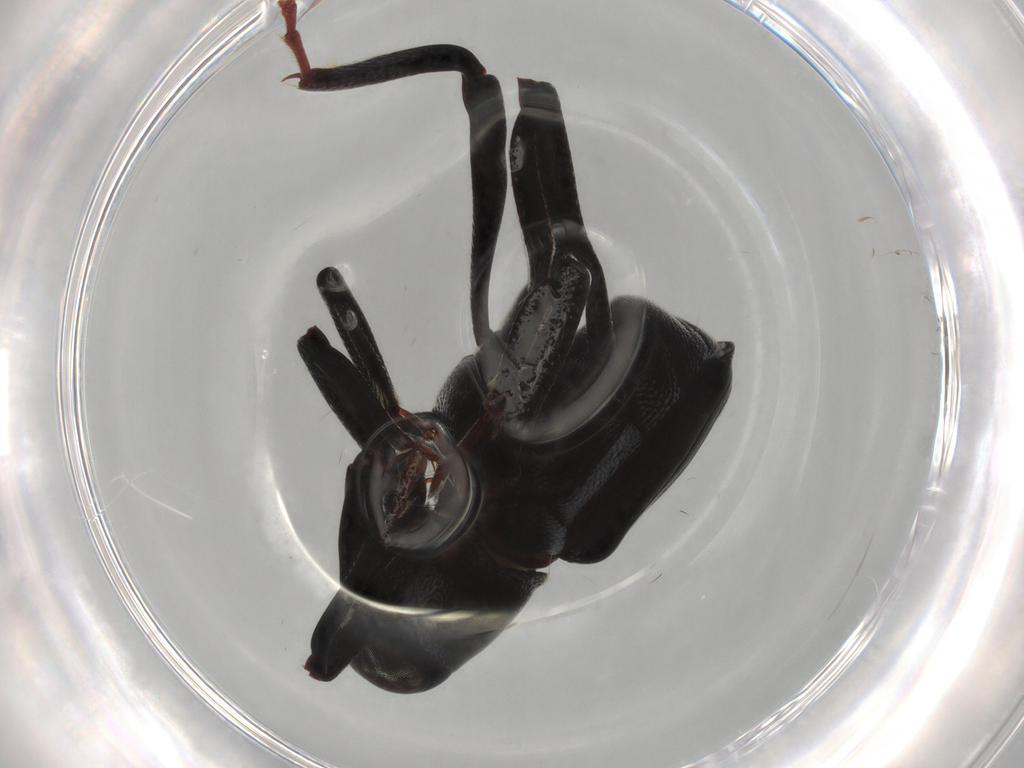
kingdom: Animalia
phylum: Arthropoda
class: Insecta
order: Coleoptera
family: Curculionidae
